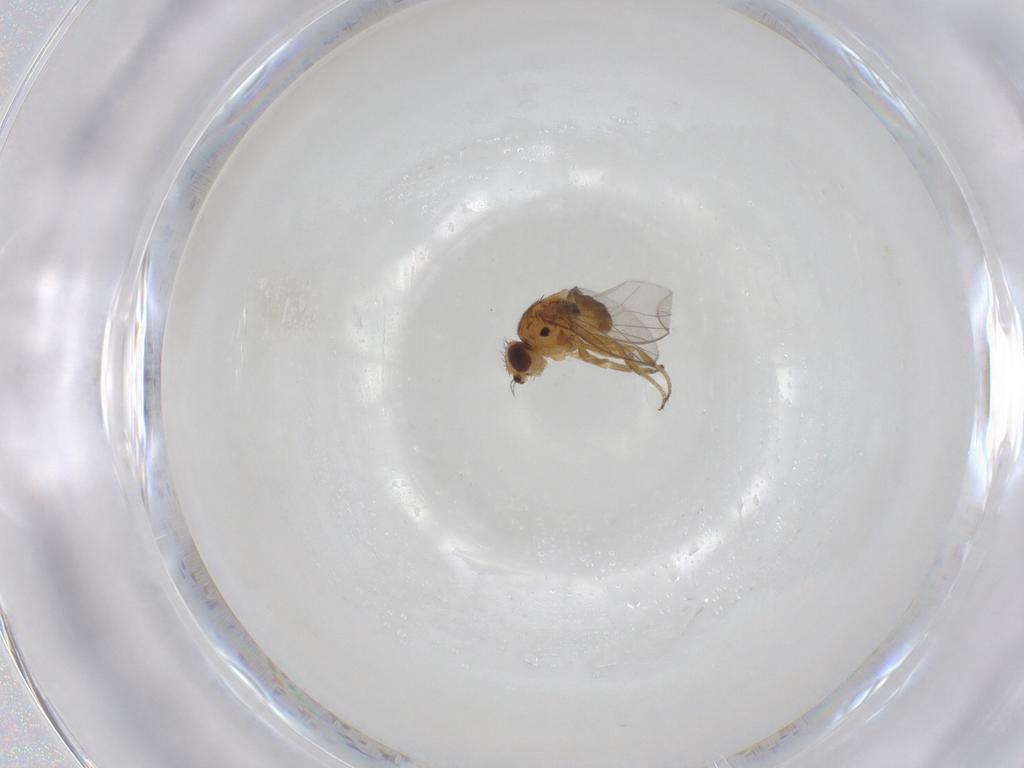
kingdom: Animalia
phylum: Arthropoda
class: Insecta
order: Diptera
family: Chloropidae
